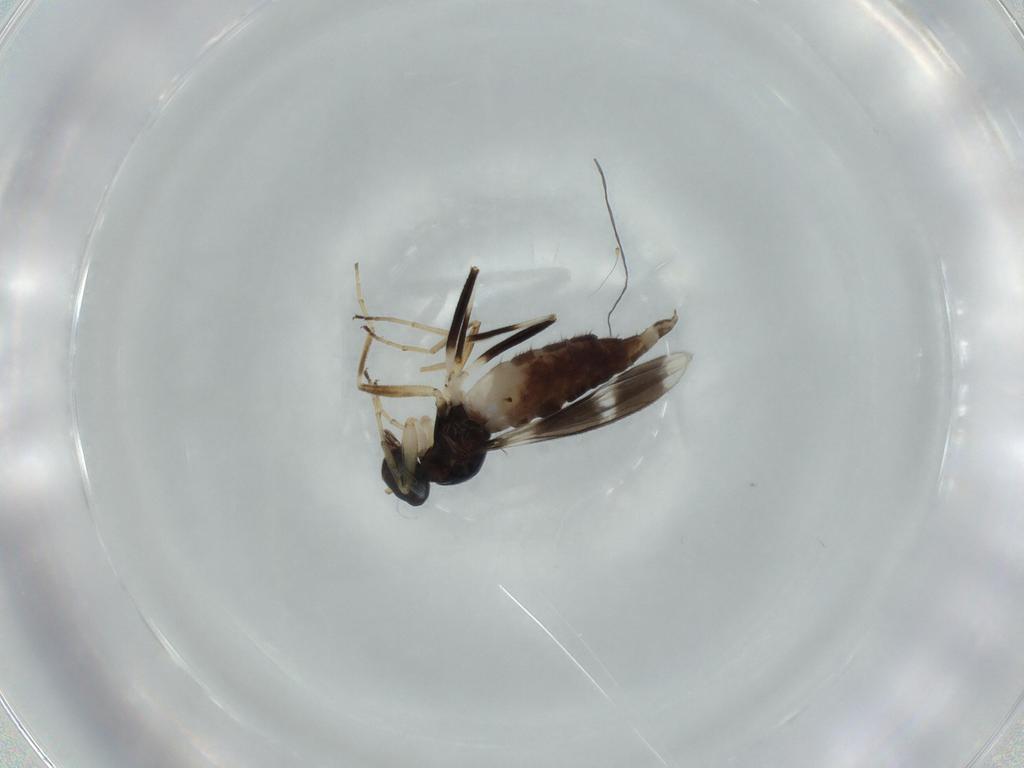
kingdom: Animalia
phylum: Arthropoda
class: Insecta
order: Diptera
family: Hybotidae
